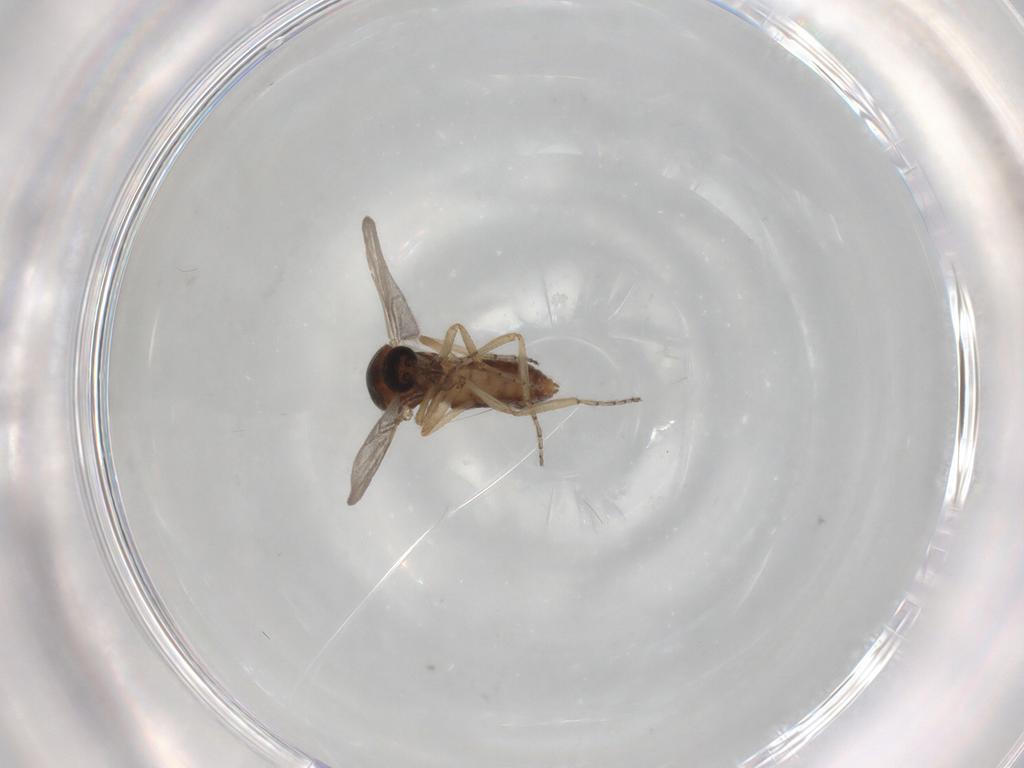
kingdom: Animalia
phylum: Arthropoda
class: Insecta
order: Diptera
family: Ceratopogonidae
